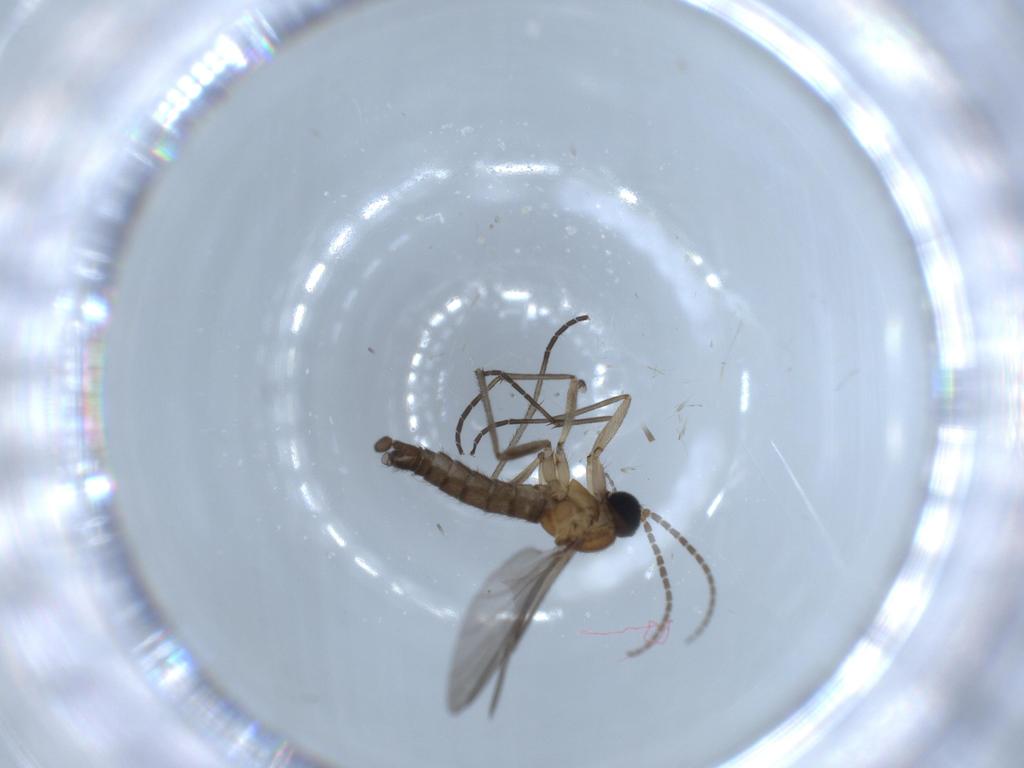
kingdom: Animalia
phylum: Arthropoda
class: Insecta
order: Diptera
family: Sciaridae
